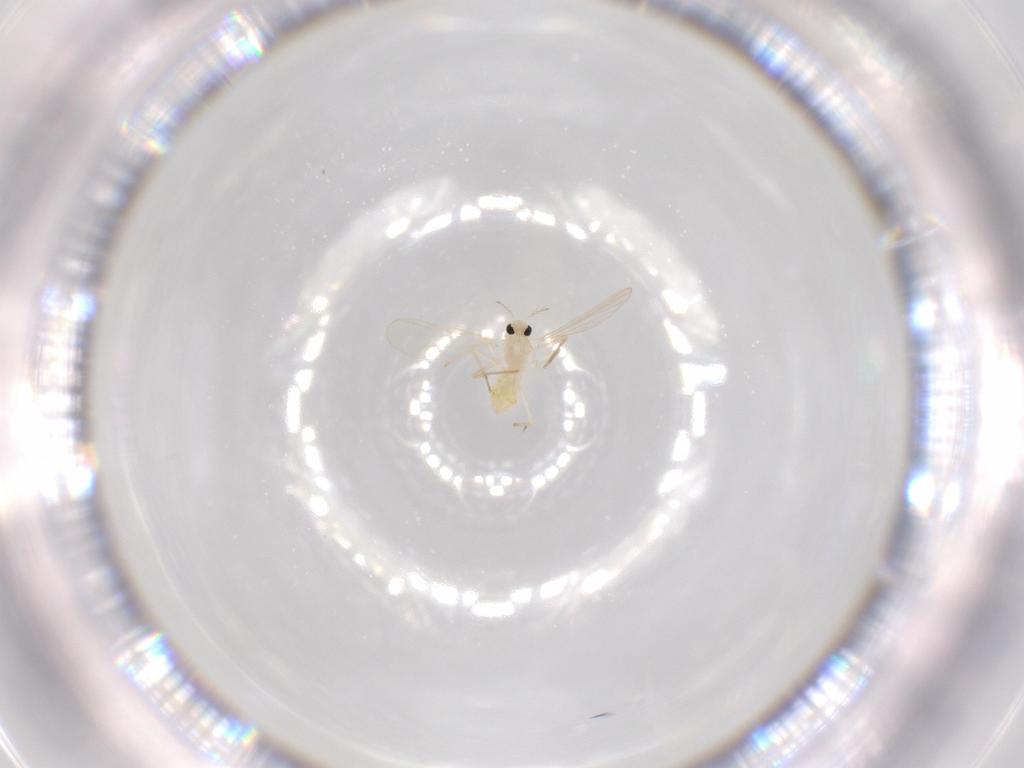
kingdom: Animalia
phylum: Arthropoda
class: Insecta
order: Diptera
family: Chironomidae
